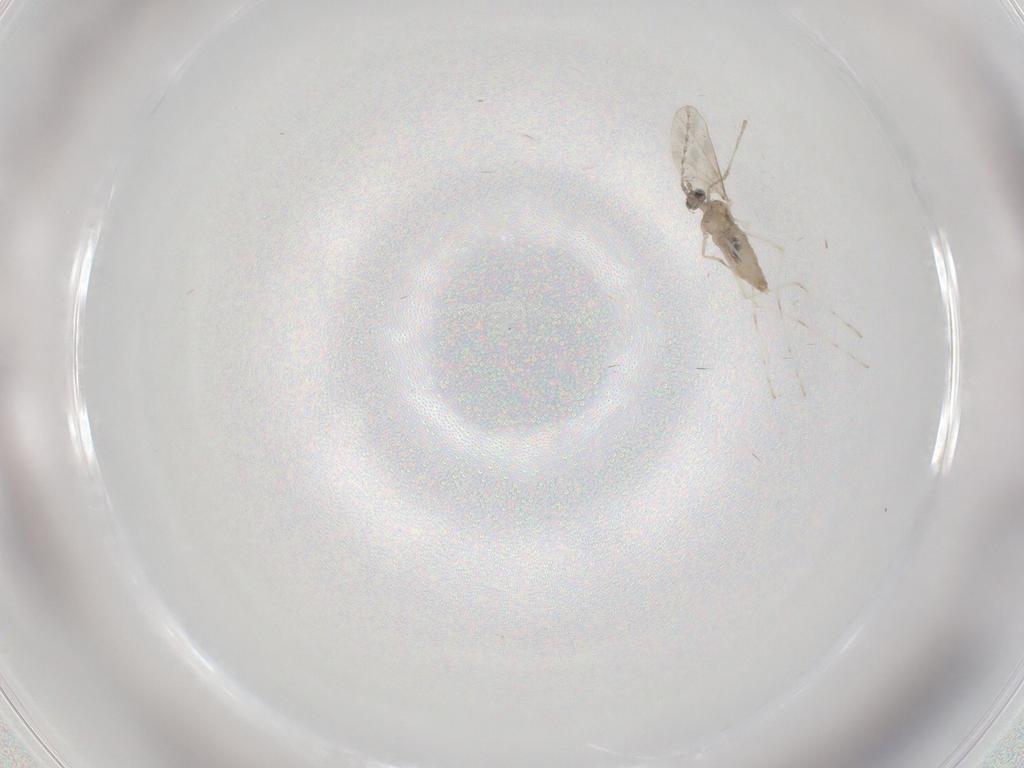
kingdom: Animalia
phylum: Arthropoda
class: Insecta
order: Diptera
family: Cecidomyiidae
